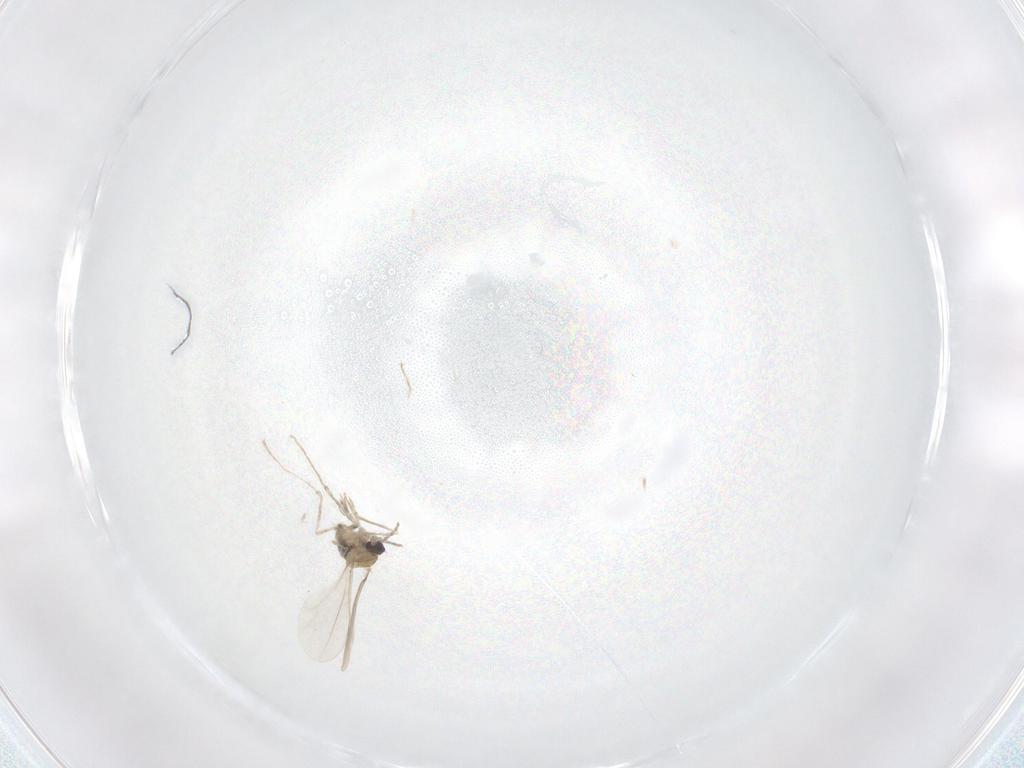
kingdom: Animalia
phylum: Arthropoda
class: Insecta
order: Diptera
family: Cecidomyiidae
